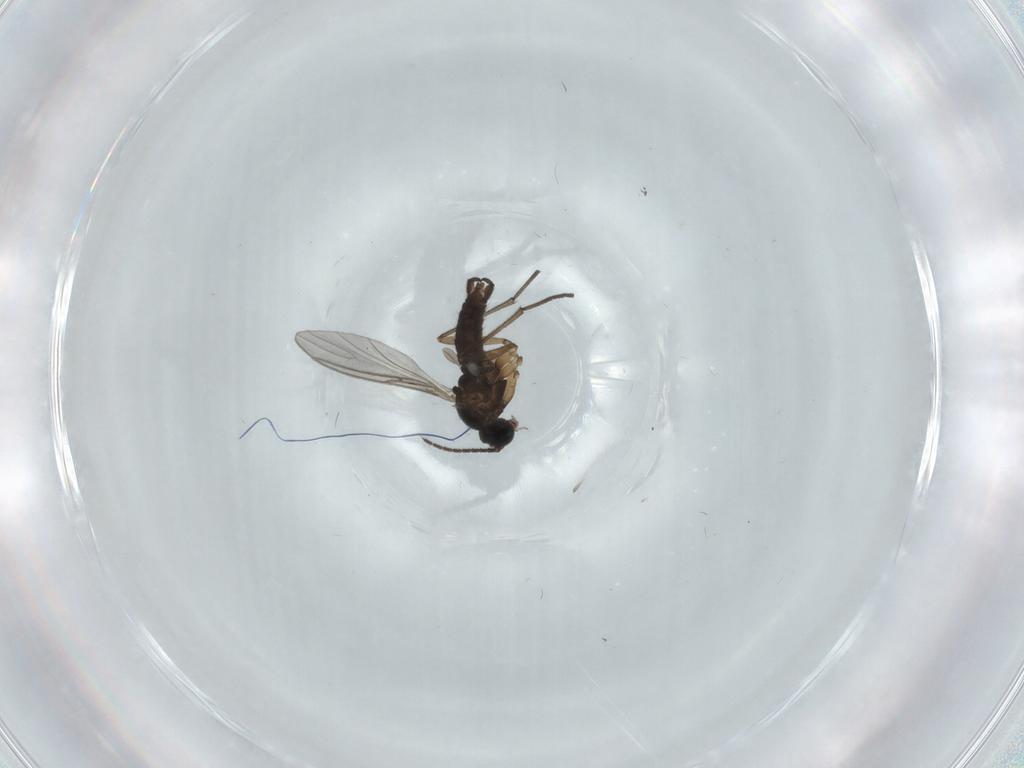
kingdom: Animalia
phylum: Arthropoda
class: Insecta
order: Diptera
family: Sciaridae
